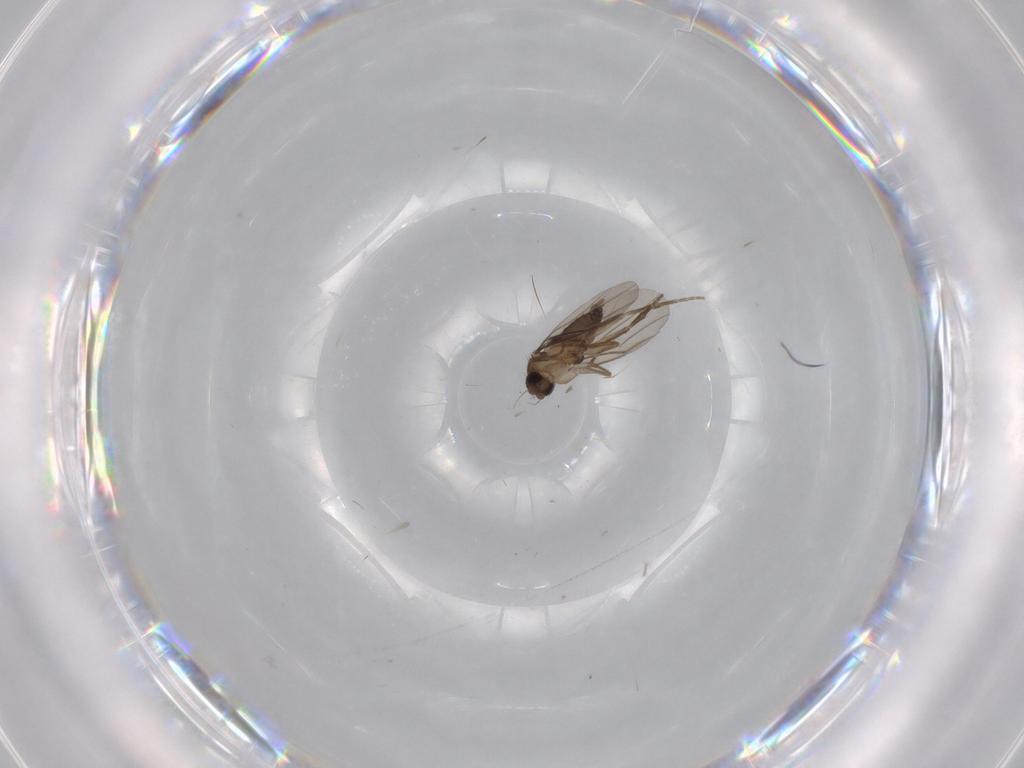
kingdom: Animalia
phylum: Arthropoda
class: Insecta
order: Diptera
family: Phoridae
